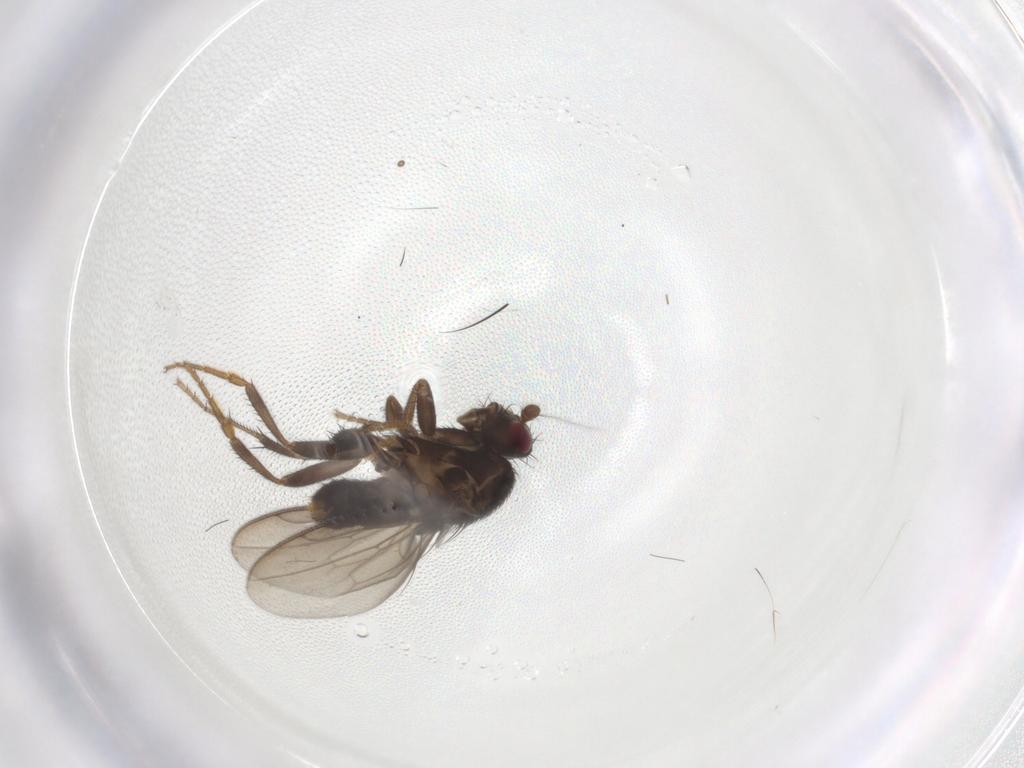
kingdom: Animalia
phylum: Arthropoda
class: Insecta
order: Diptera
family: Sphaeroceridae
